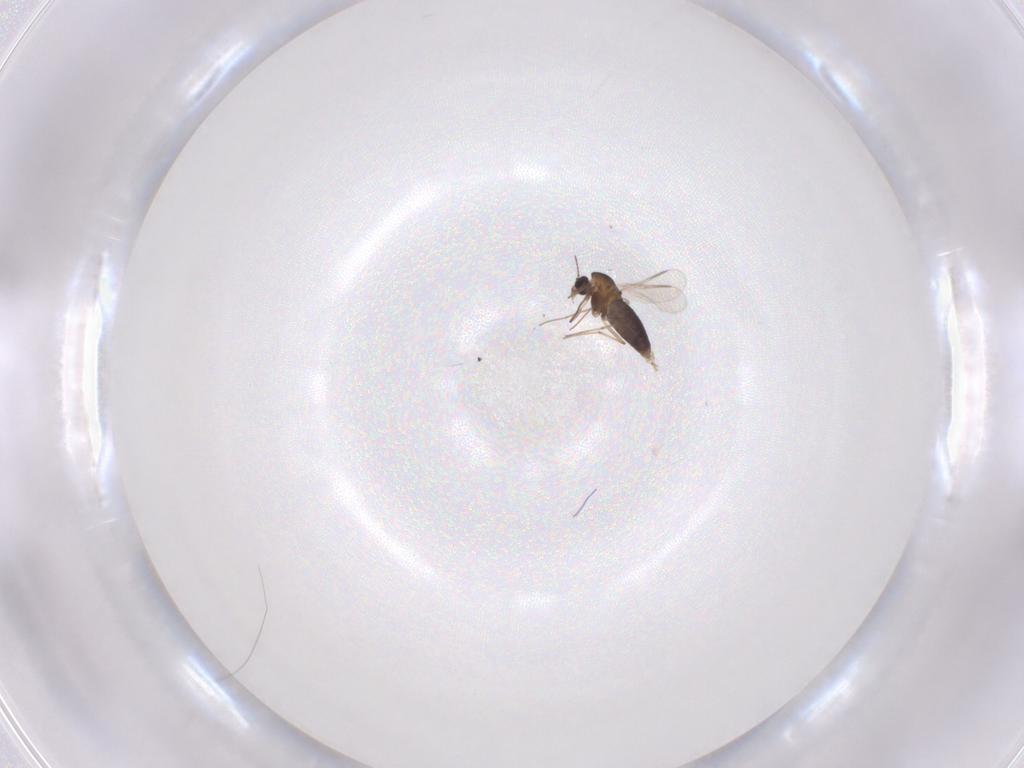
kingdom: Animalia
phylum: Arthropoda
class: Insecta
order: Diptera
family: Chironomidae
